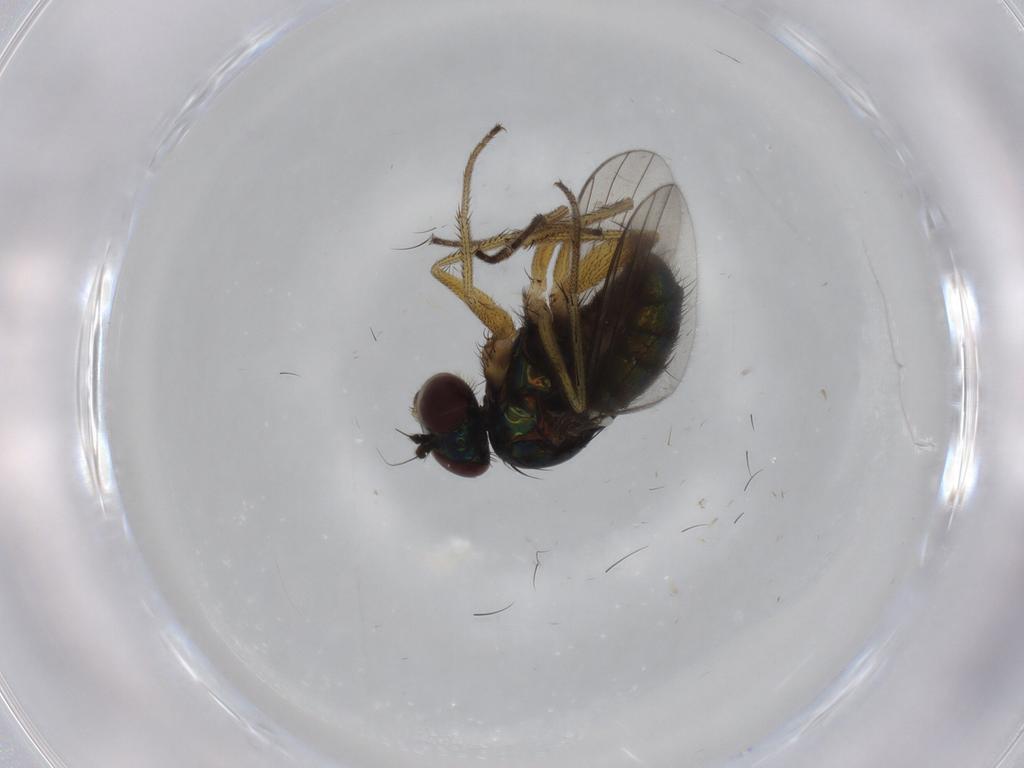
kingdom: Animalia
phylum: Arthropoda
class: Insecta
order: Diptera
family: Dolichopodidae
